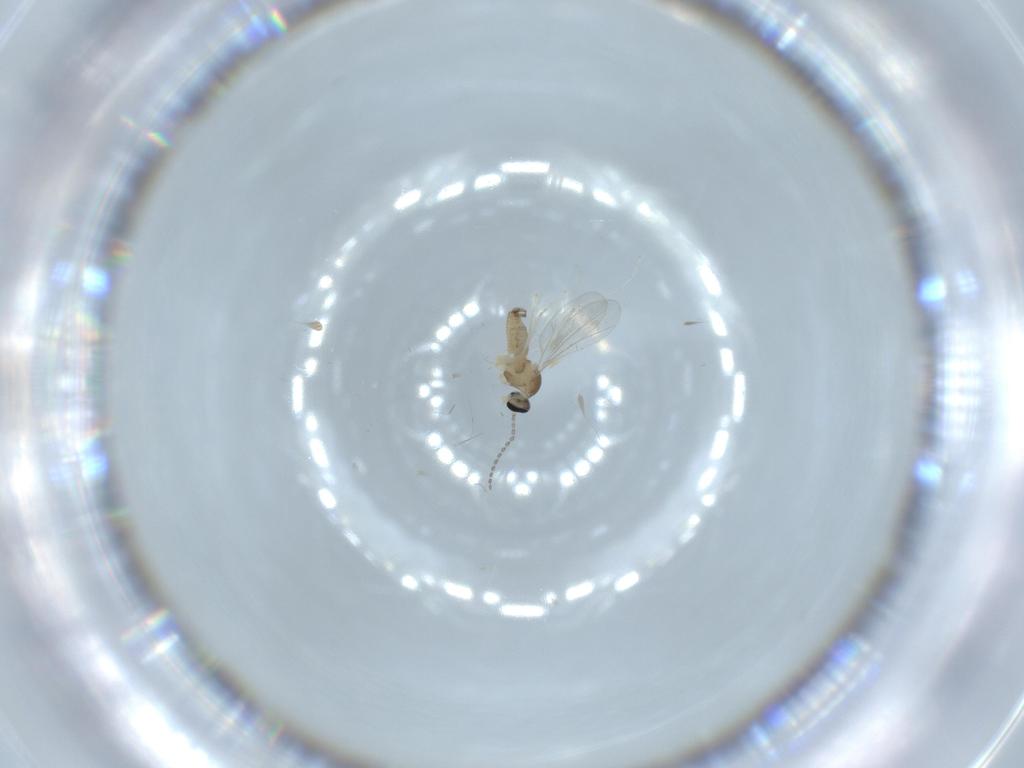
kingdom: Animalia
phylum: Arthropoda
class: Insecta
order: Diptera
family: Cecidomyiidae
